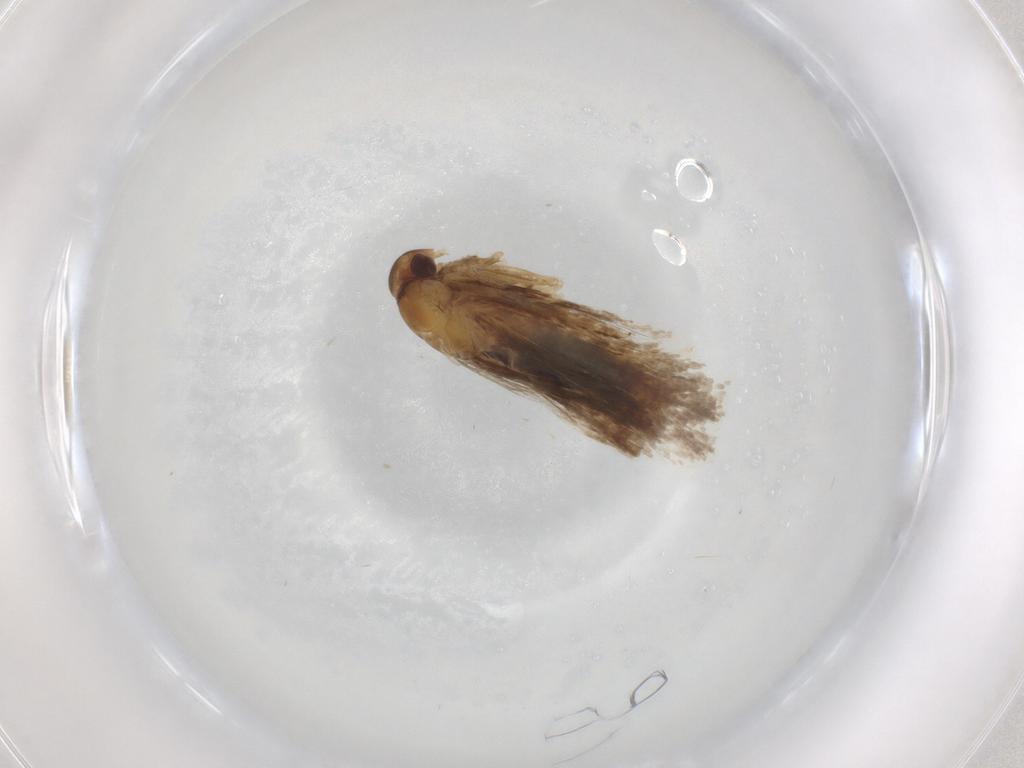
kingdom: Animalia
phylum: Arthropoda
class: Insecta
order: Lepidoptera
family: Oecophoridae
